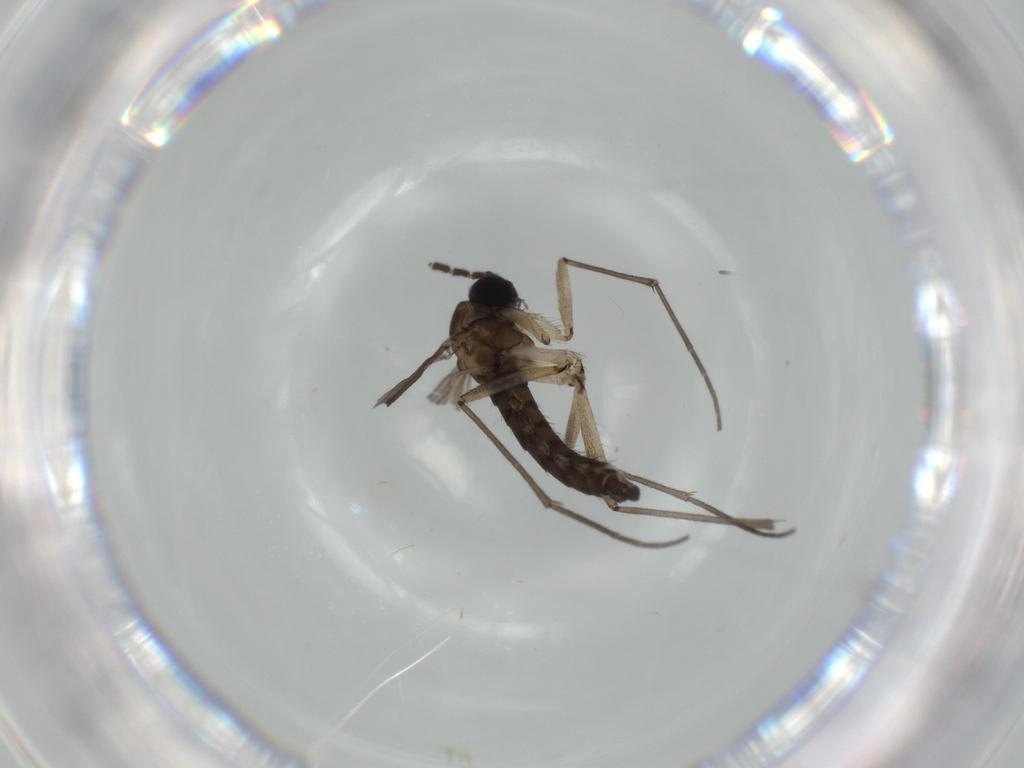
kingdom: Animalia
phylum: Arthropoda
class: Insecta
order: Diptera
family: Sciaridae
